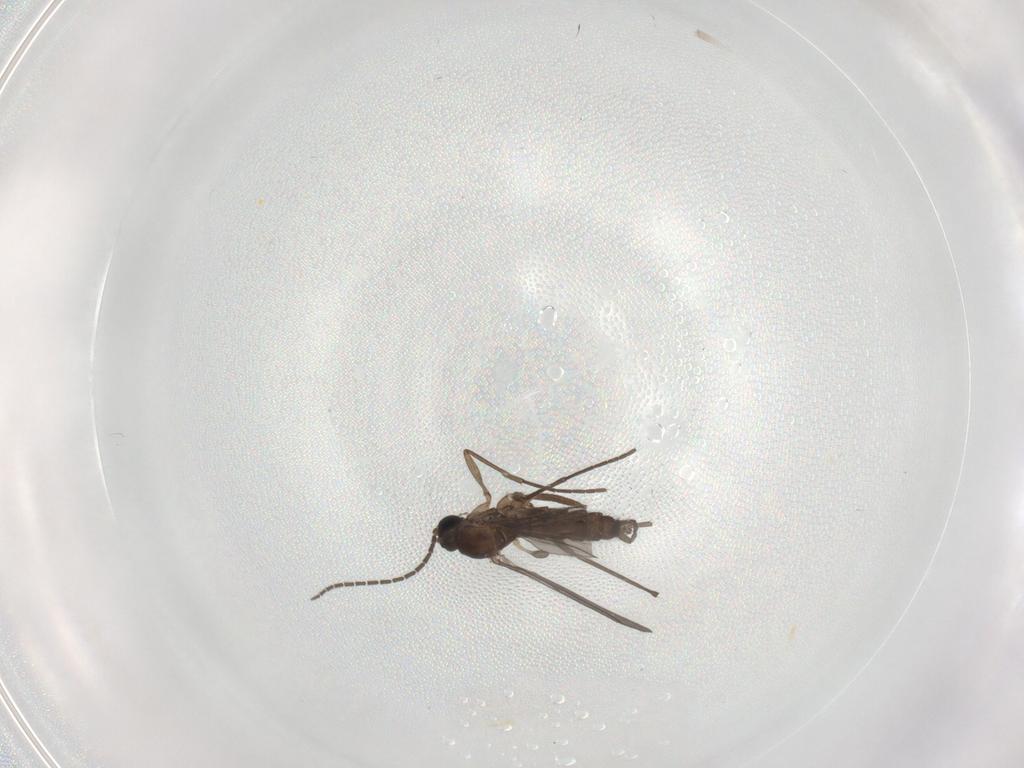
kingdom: Animalia
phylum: Arthropoda
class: Insecta
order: Diptera
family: Sciaridae
